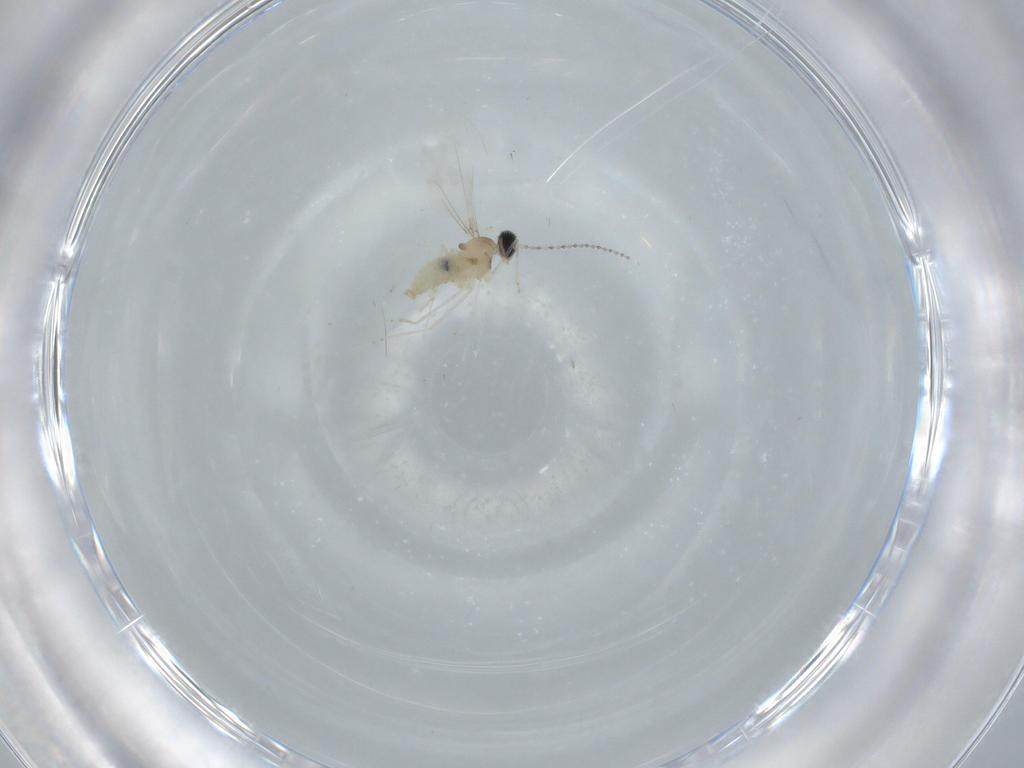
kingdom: Animalia
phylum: Arthropoda
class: Insecta
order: Diptera
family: Cecidomyiidae
